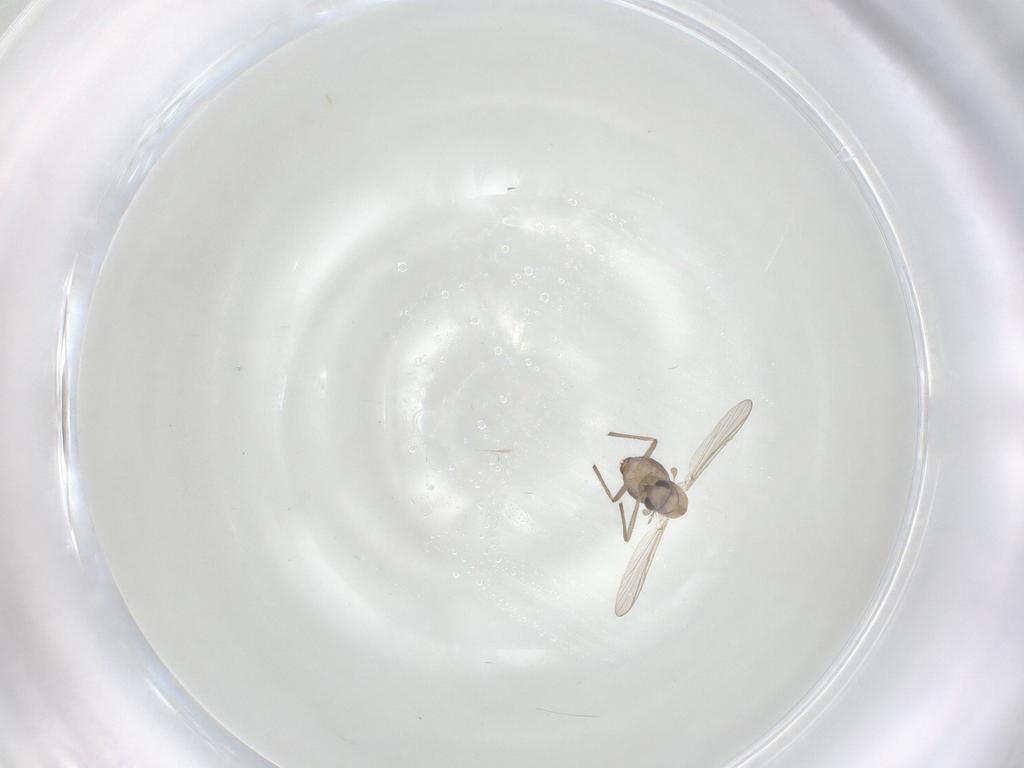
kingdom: Animalia
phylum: Arthropoda
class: Insecta
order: Diptera
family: Chironomidae
